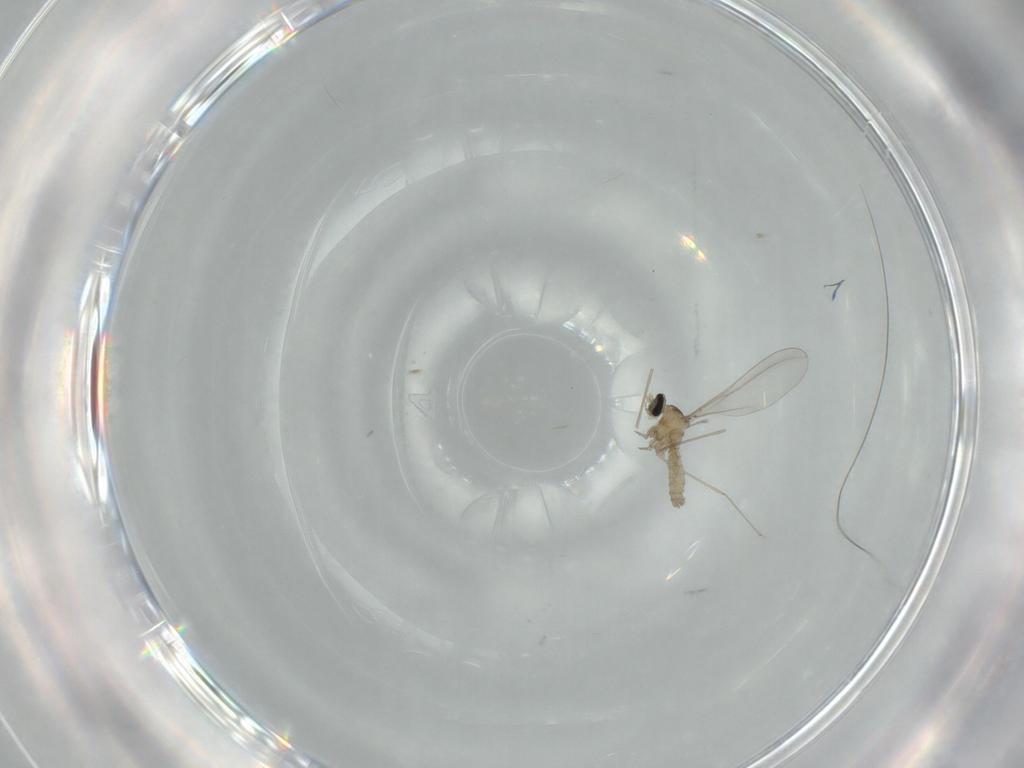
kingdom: Animalia
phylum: Arthropoda
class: Insecta
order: Diptera
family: Cecidomyiidae
